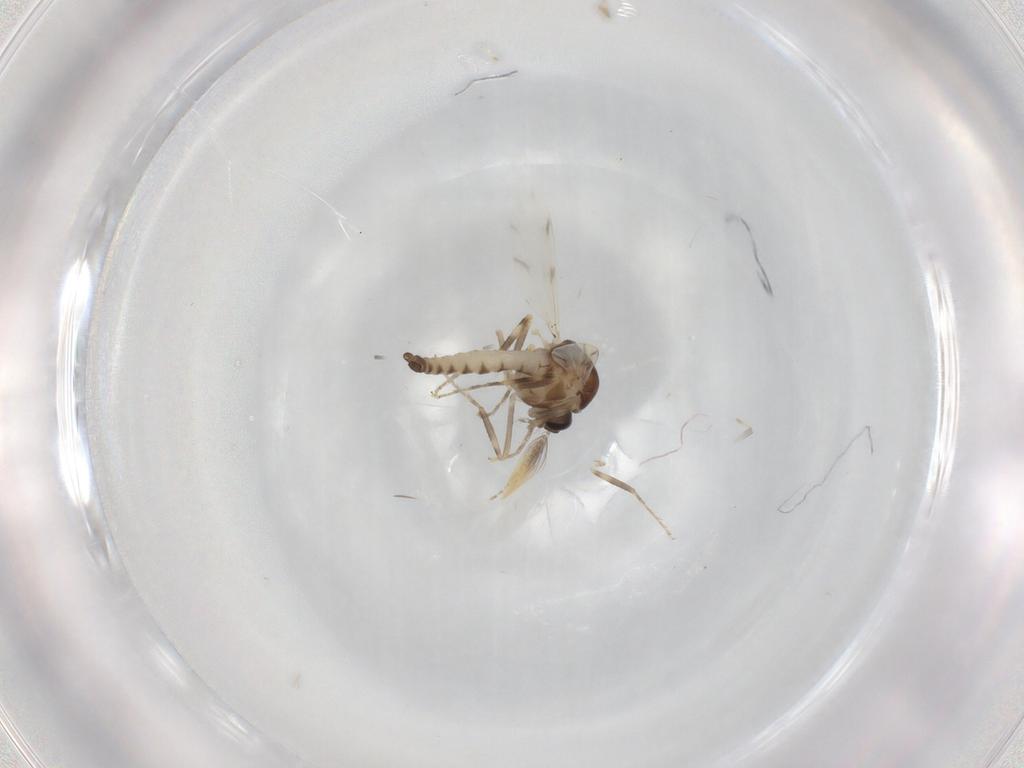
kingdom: Animalia
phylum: Arthropoda
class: Insecta
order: Diptera
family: Ceratopogonidae
